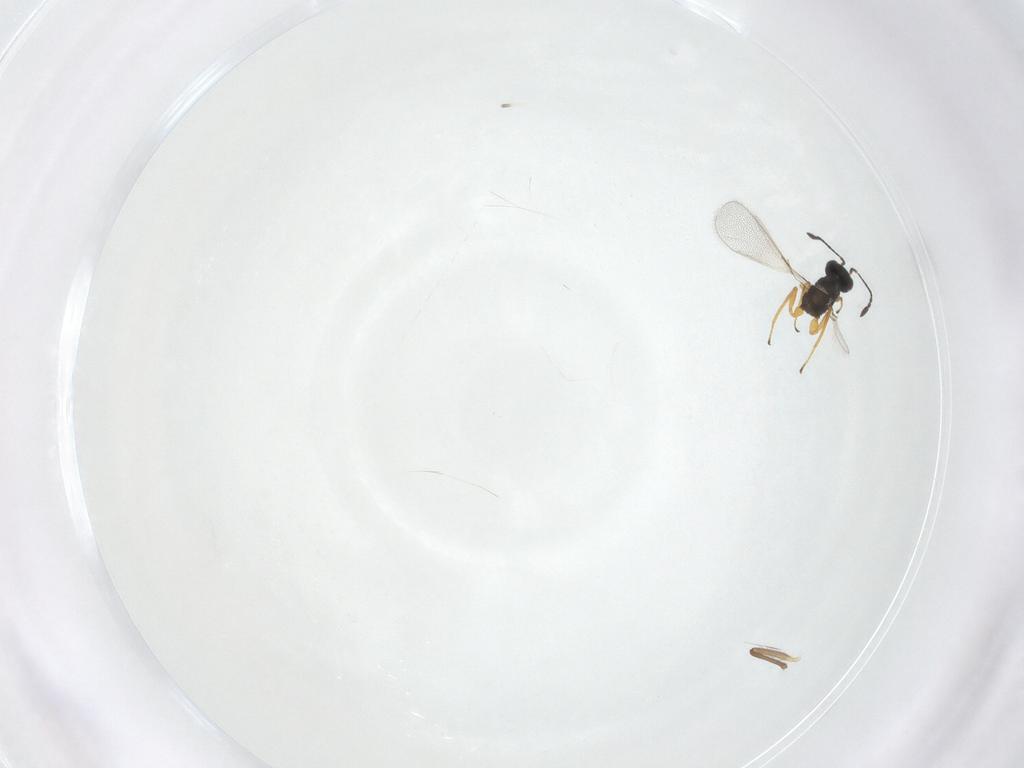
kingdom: Animalia
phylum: Arthropoda
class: Insecta
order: Hymenoptera
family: Mymaridae
